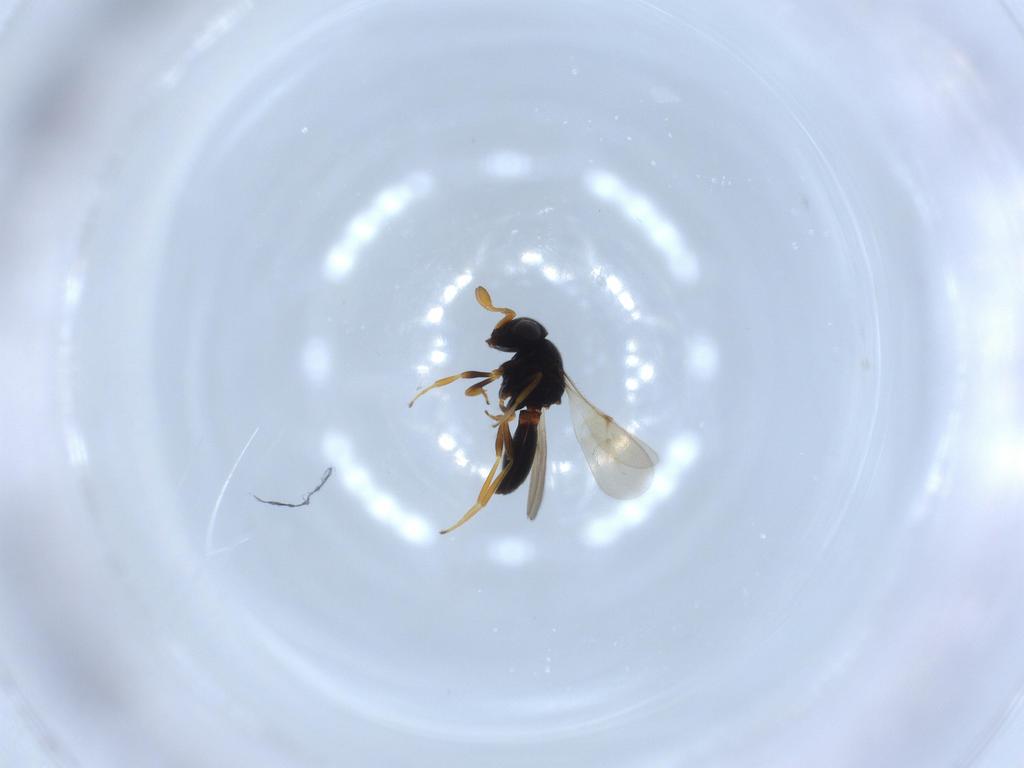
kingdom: Animalia
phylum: Arthropoda
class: Insecta
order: Hymenoptera
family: Scelionidae
